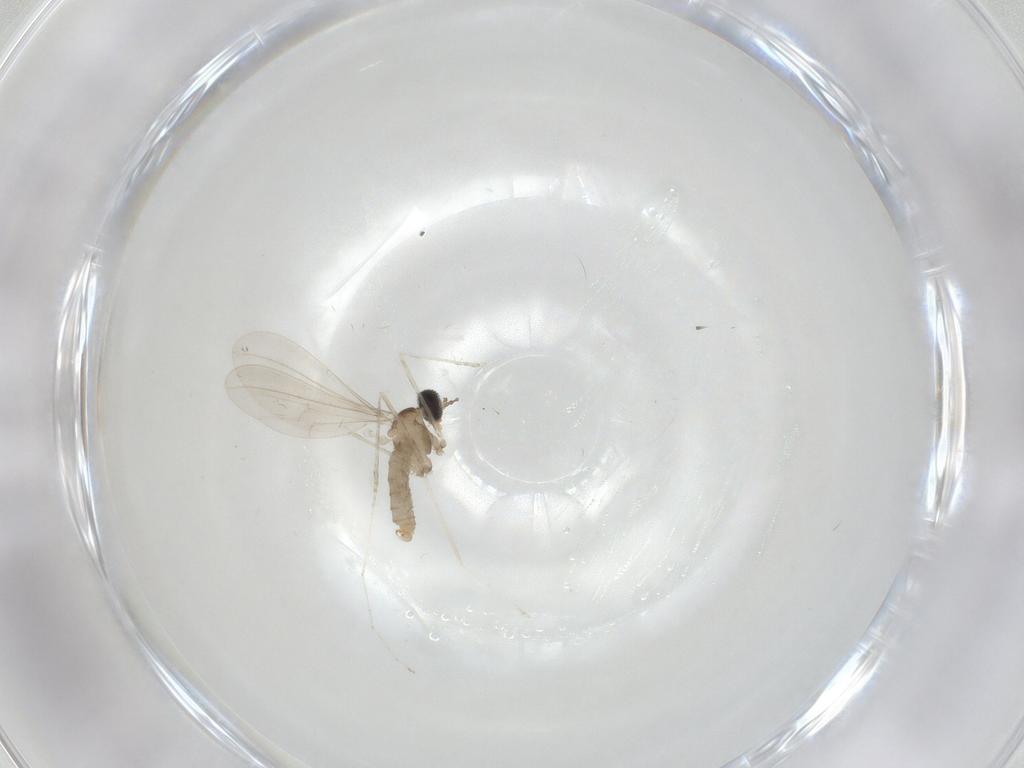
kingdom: Animalia
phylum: Arthropoda
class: Insecta
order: Diptera
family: Cecidomyiidae
